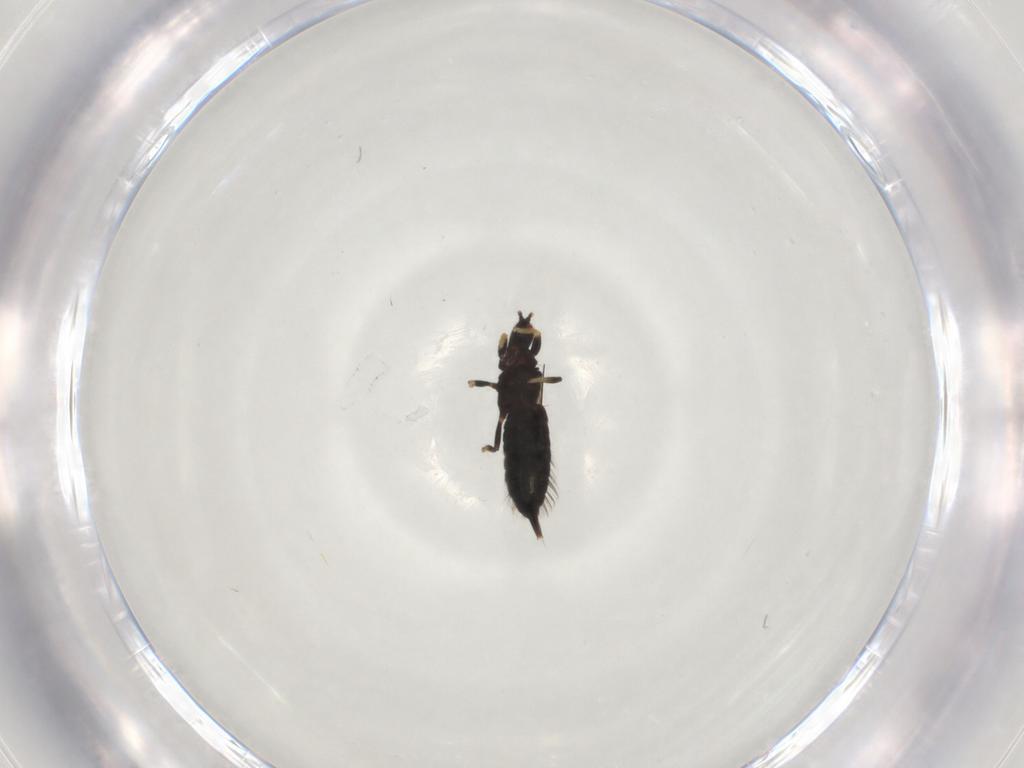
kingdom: Animalia
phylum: Arthropoda
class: Insecta
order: Thysanoptera
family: Phlaeothripidae
